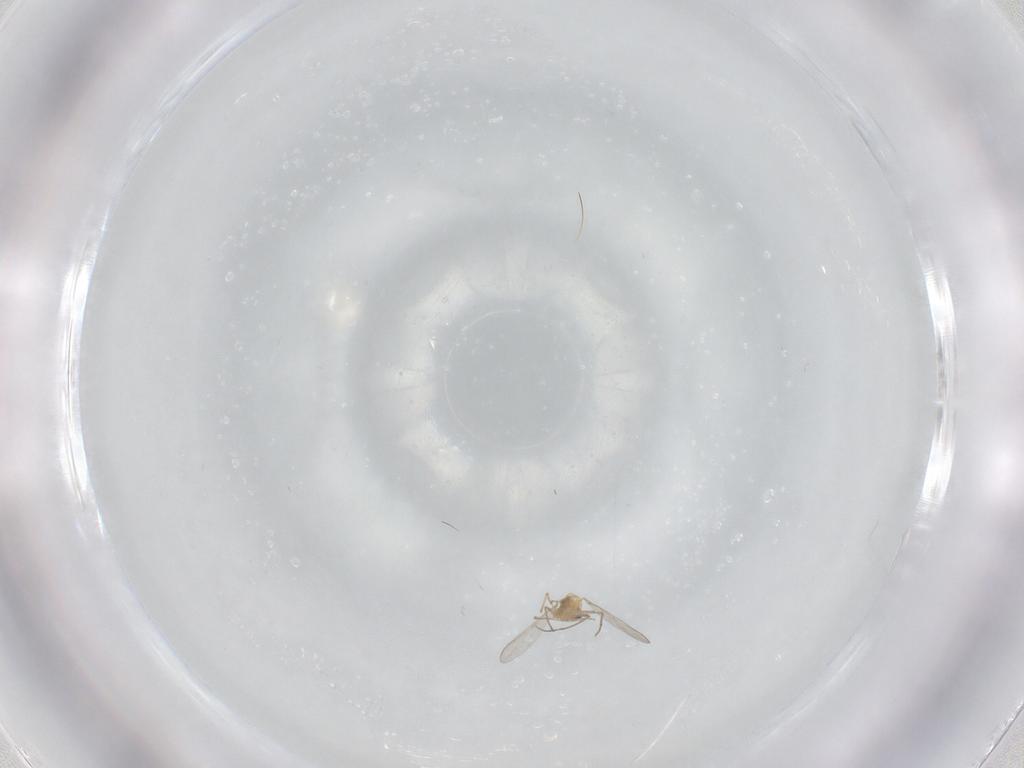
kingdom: Animalia
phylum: Arthropoda
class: Insecta
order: Diptera
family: Chironomidae
